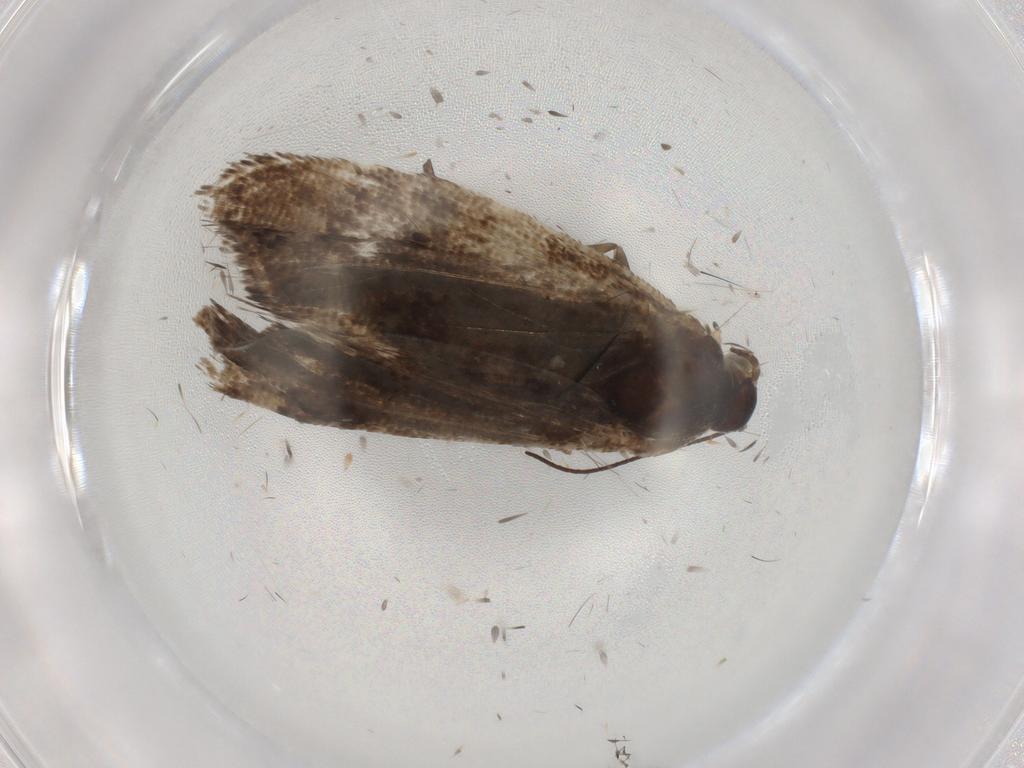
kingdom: Animalia
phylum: Arthropoda
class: Insecta
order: Lepidoptera
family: Choreutidae
